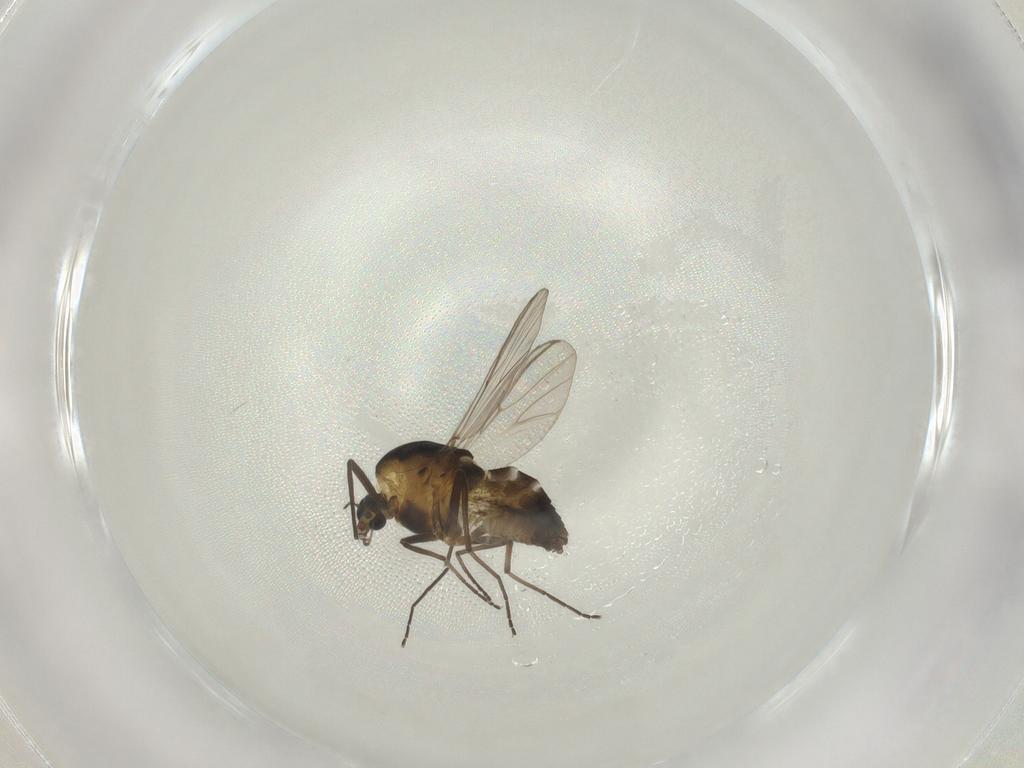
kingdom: Animalia
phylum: Arthropoda
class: Insecta
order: Diptera
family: Chironomidae
